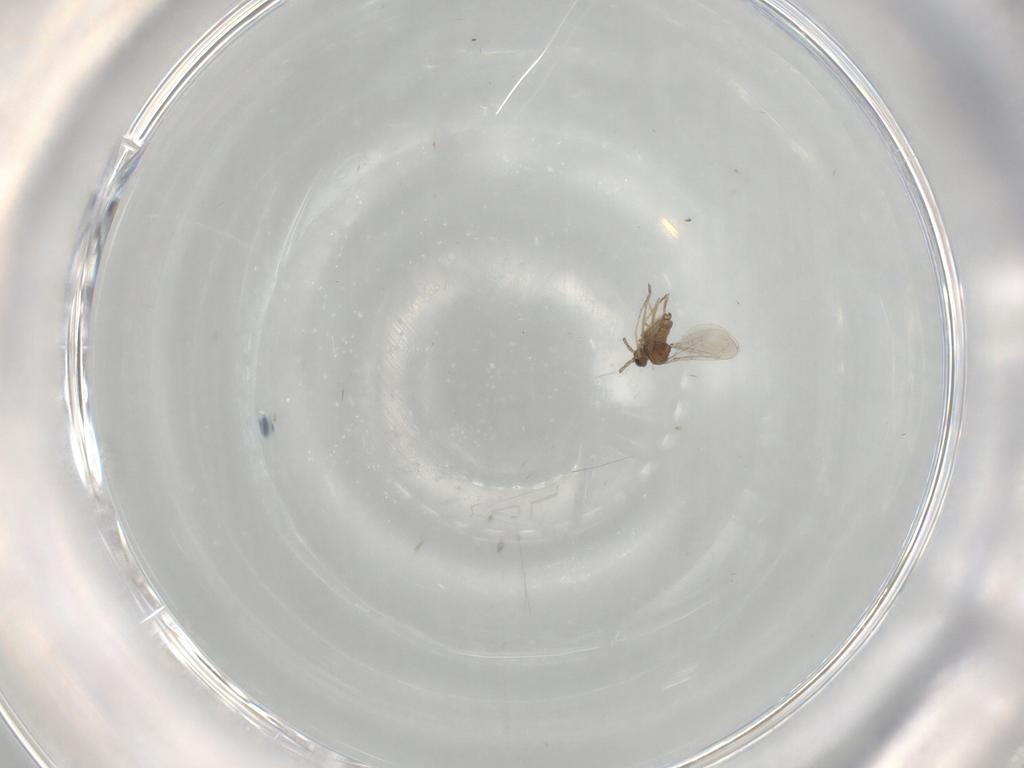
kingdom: Animalia
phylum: Arthropoda
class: Insecta
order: Diptera
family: Cecidomyiidae
